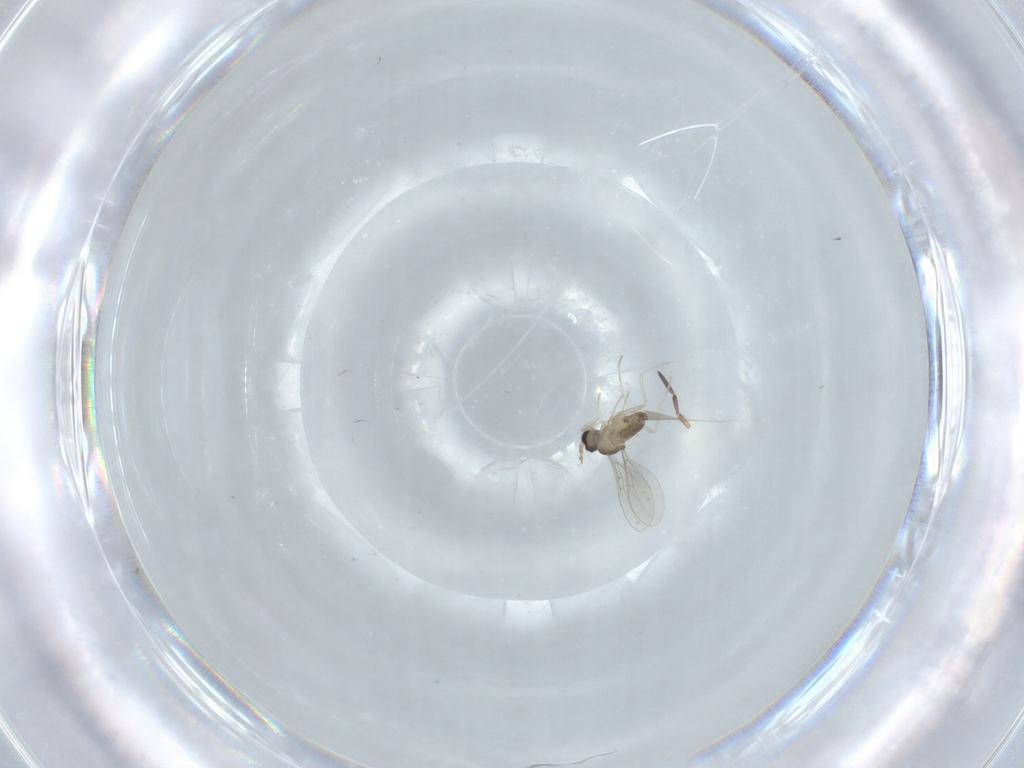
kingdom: Animalia
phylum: Arthropoda
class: Insecta
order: Diptera
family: Cecidomyiidae
